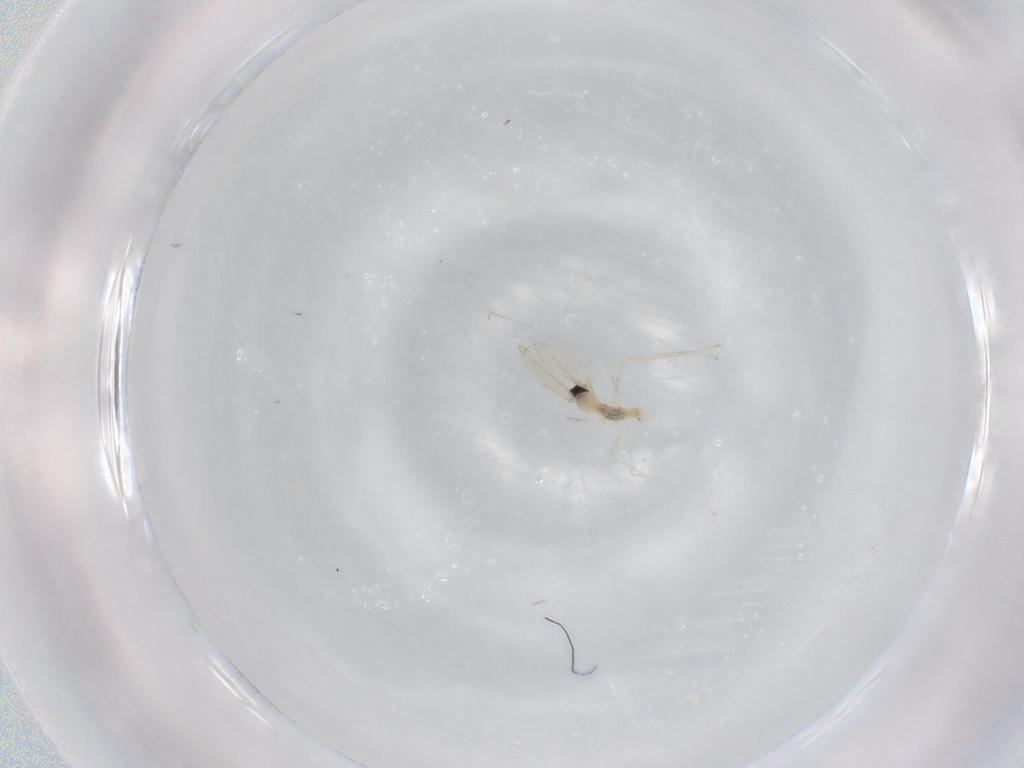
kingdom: Animalia
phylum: Arthropoda
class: Insecta
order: Diptera
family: Cecidomyiidae
